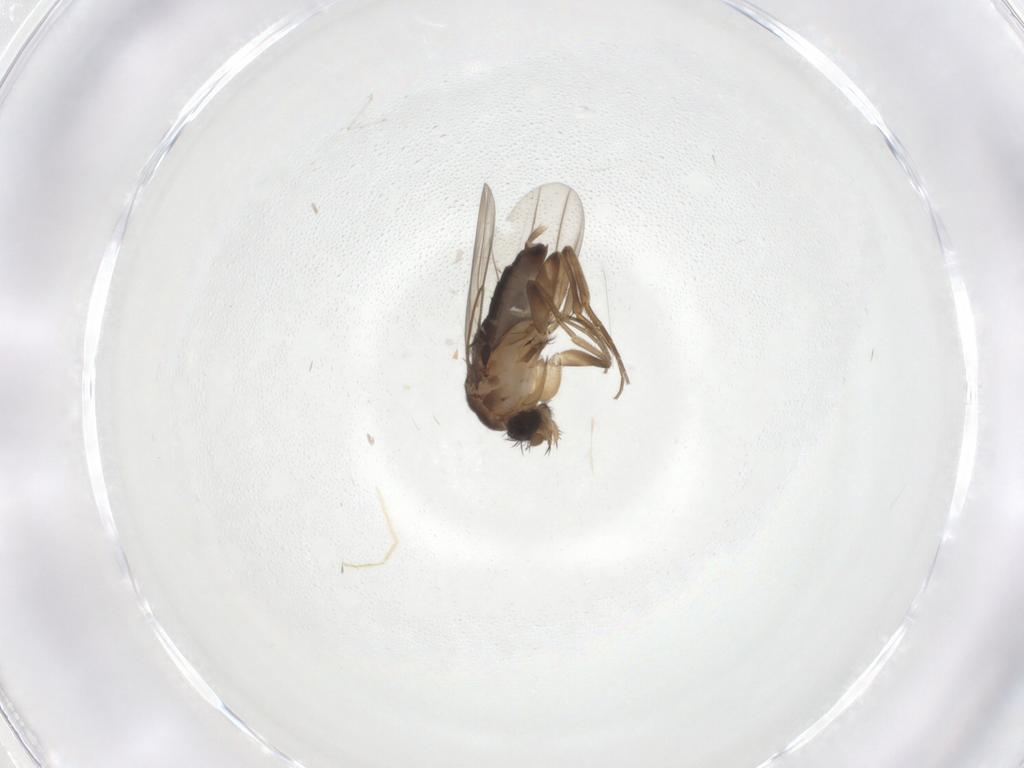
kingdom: Animalia
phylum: Arthropoda
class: Insecta
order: Diptera
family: Phoridae
